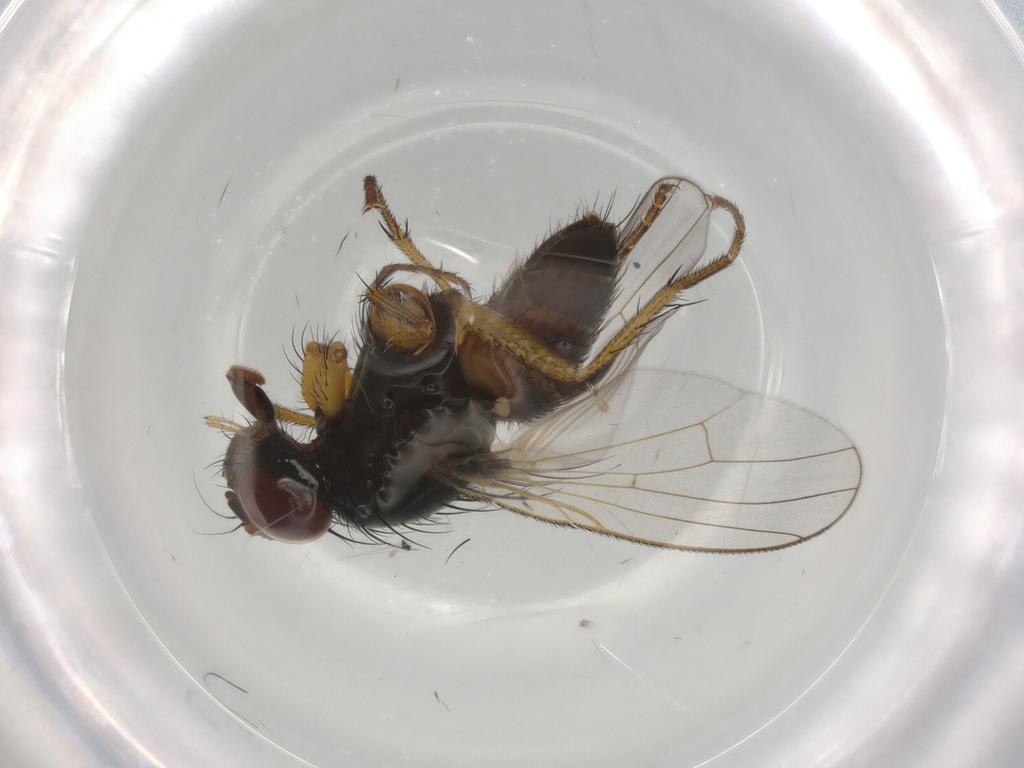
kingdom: Animalia
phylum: Arthropoda
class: Insecta
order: Diptera
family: Muscidae
